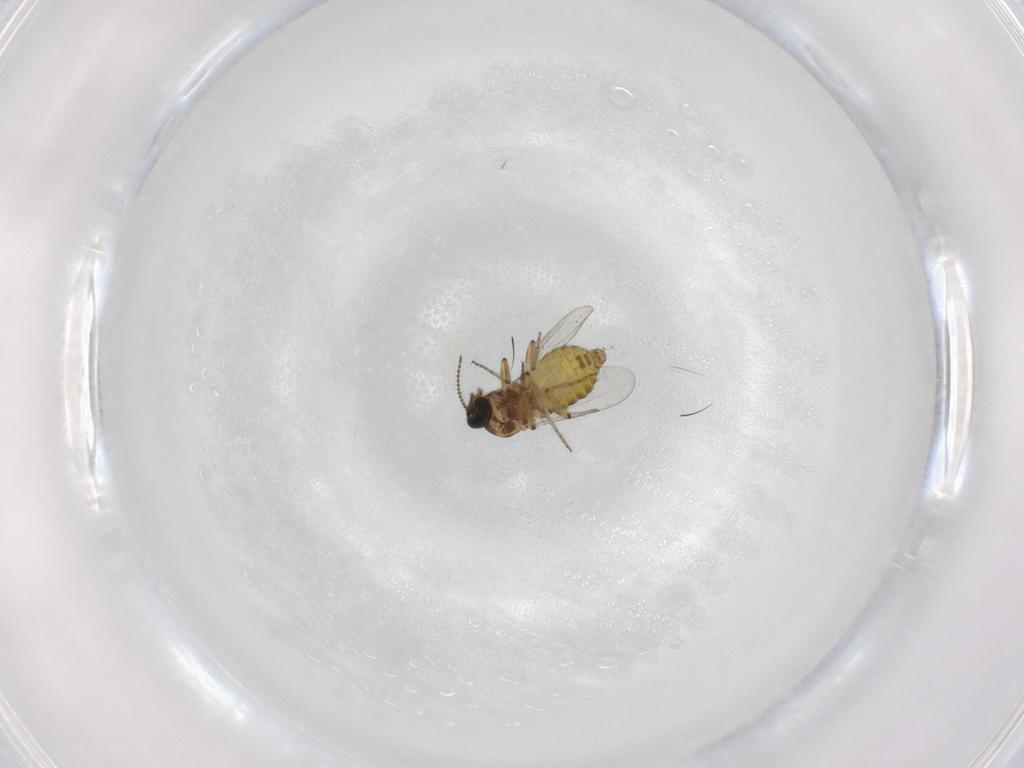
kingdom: Animalia
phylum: Arthropoda
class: Insecta
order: Diptera
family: Ceratopogonidae
